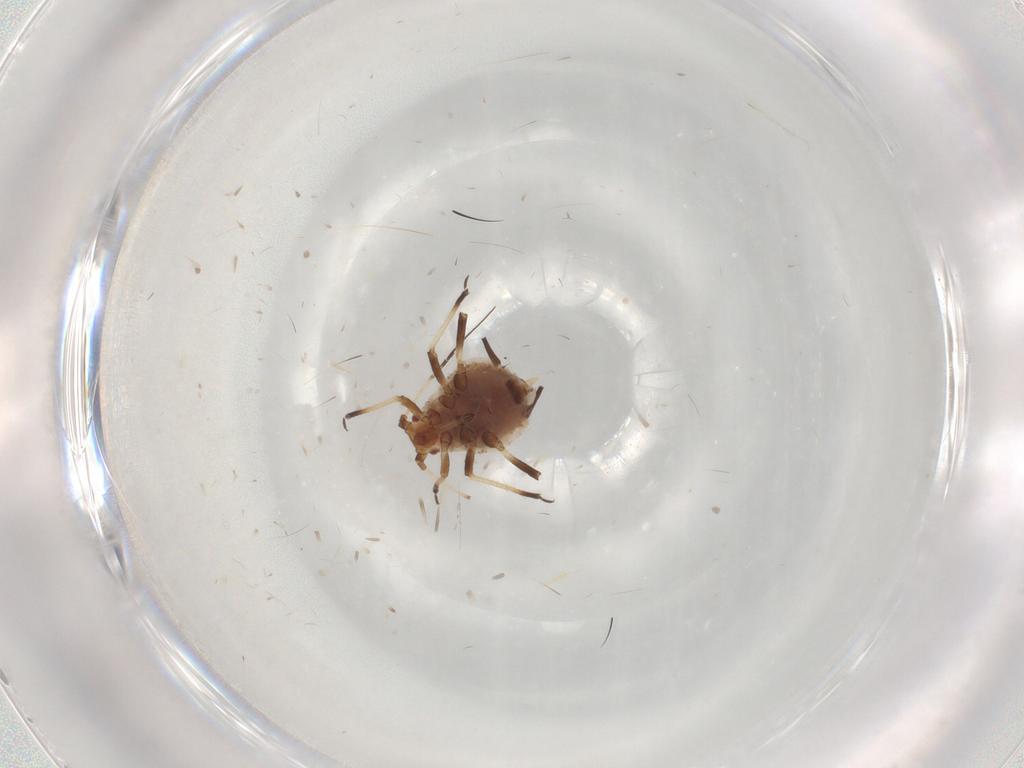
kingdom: Animalia
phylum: Arthropoda
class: Insecta
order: Hemiptera
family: Aphididae
